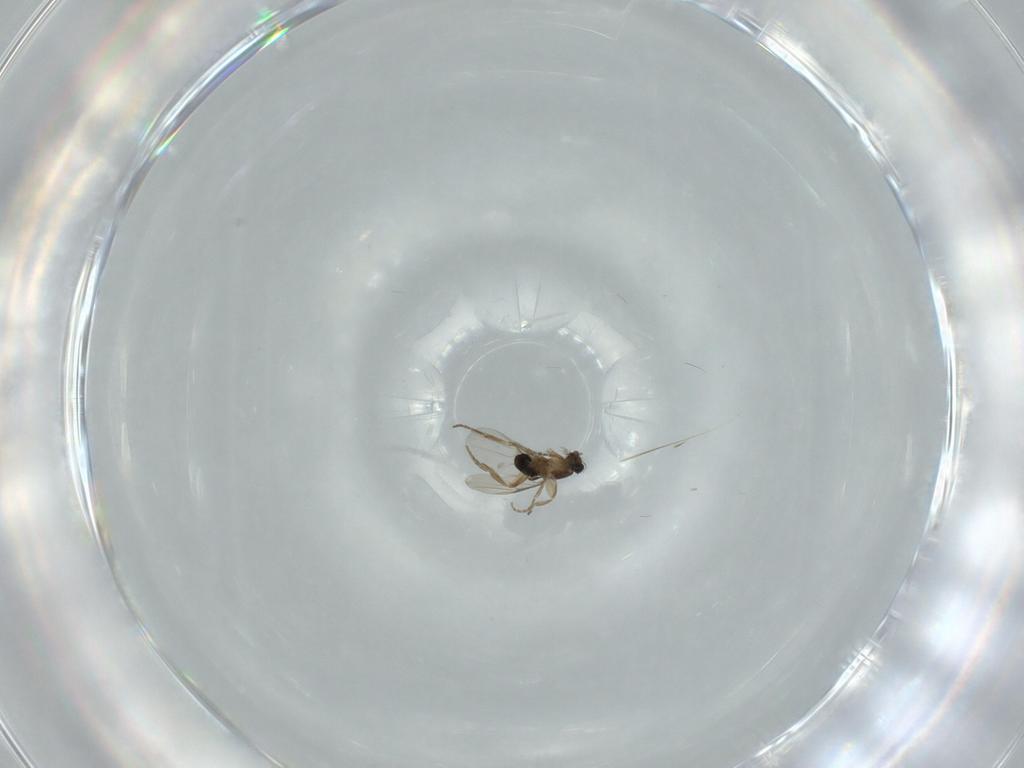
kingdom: Animalia
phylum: Arthropoda
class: Insecta
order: Diptera
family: Phoridae
